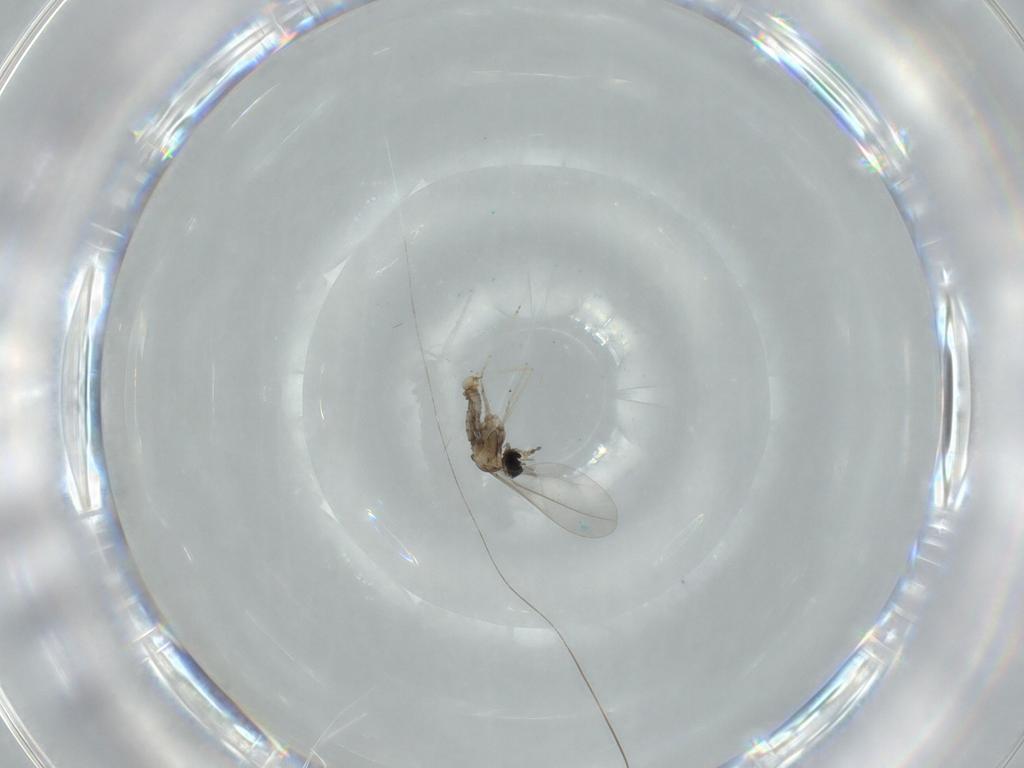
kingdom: Animalia
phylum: Arthropoda
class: Insecta
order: Diptera
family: Cecidomyiidae
